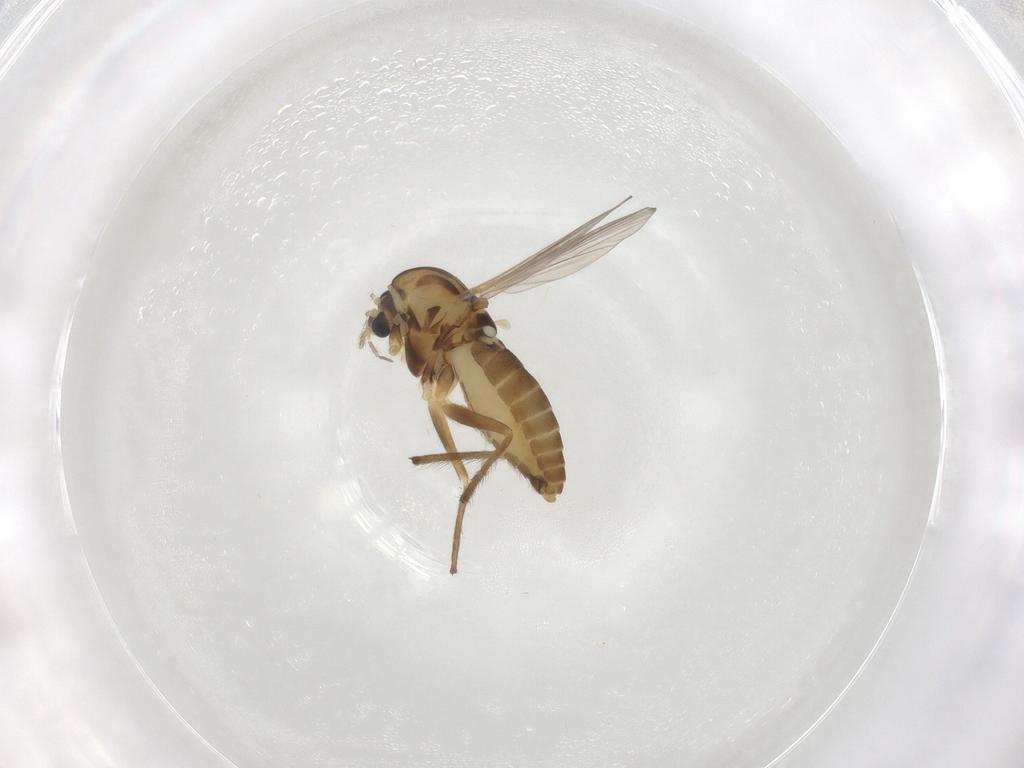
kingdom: Animalia
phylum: Arthropoda
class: Insecta
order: Diptera
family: Chironomidae
